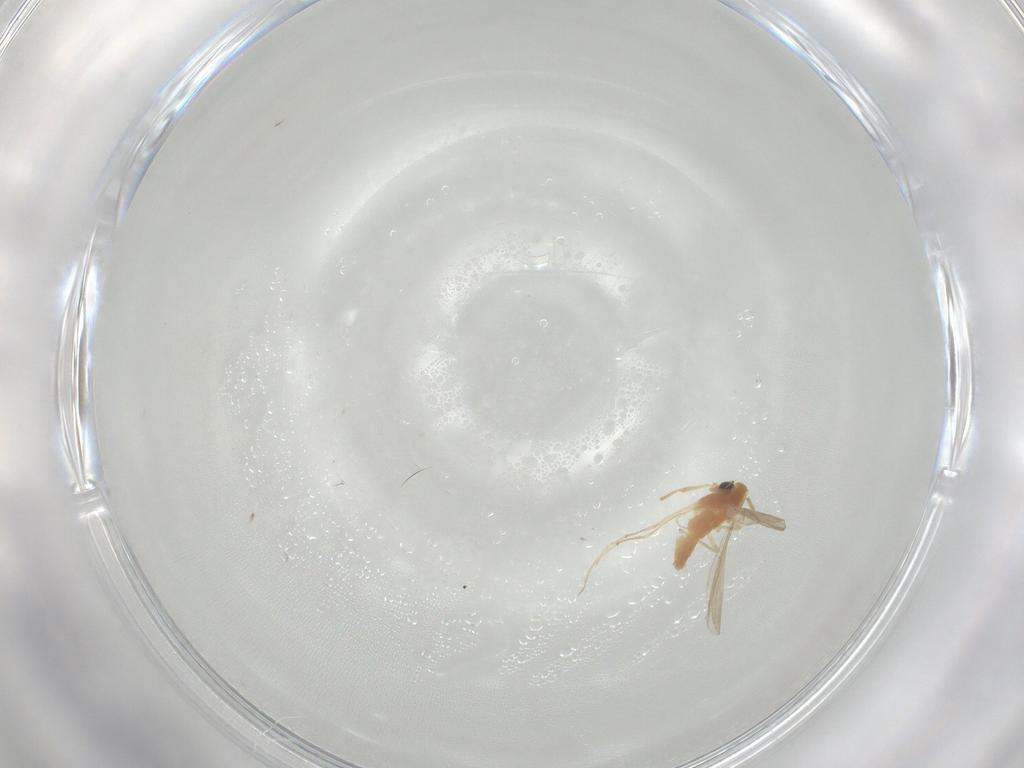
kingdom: Animalia
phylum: Arthropoda
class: Insecta
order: Diptera
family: Chironomidae
